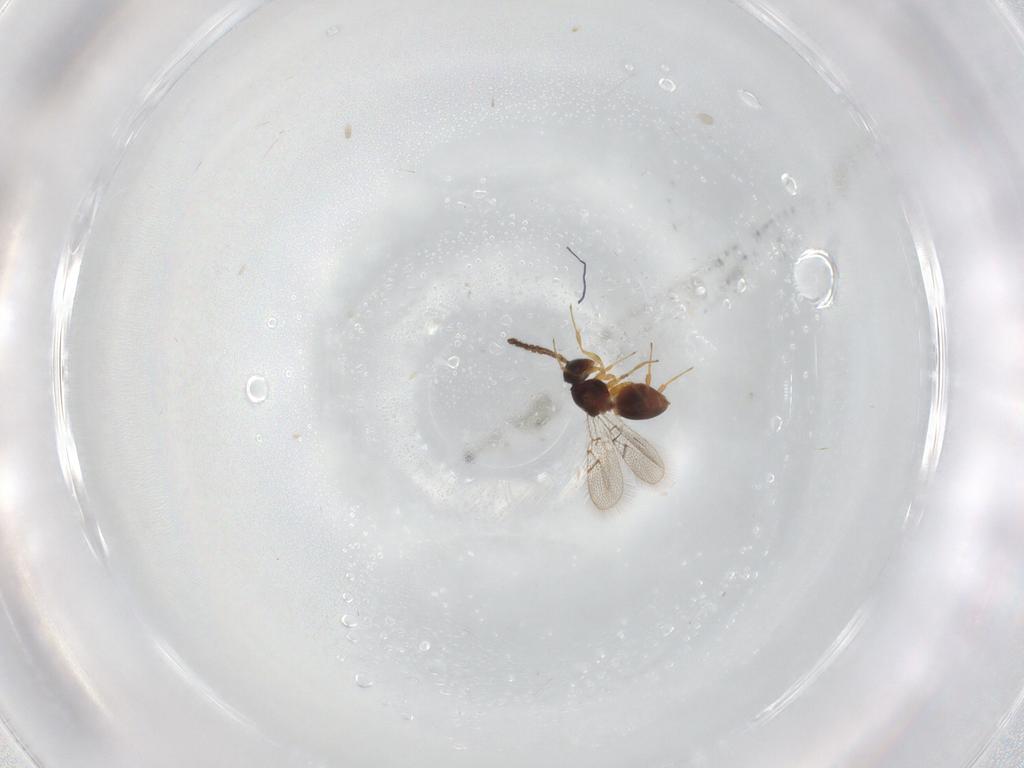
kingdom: Animalia
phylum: Arthropoda
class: Insecta
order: Hymenoptera
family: Figitidae
